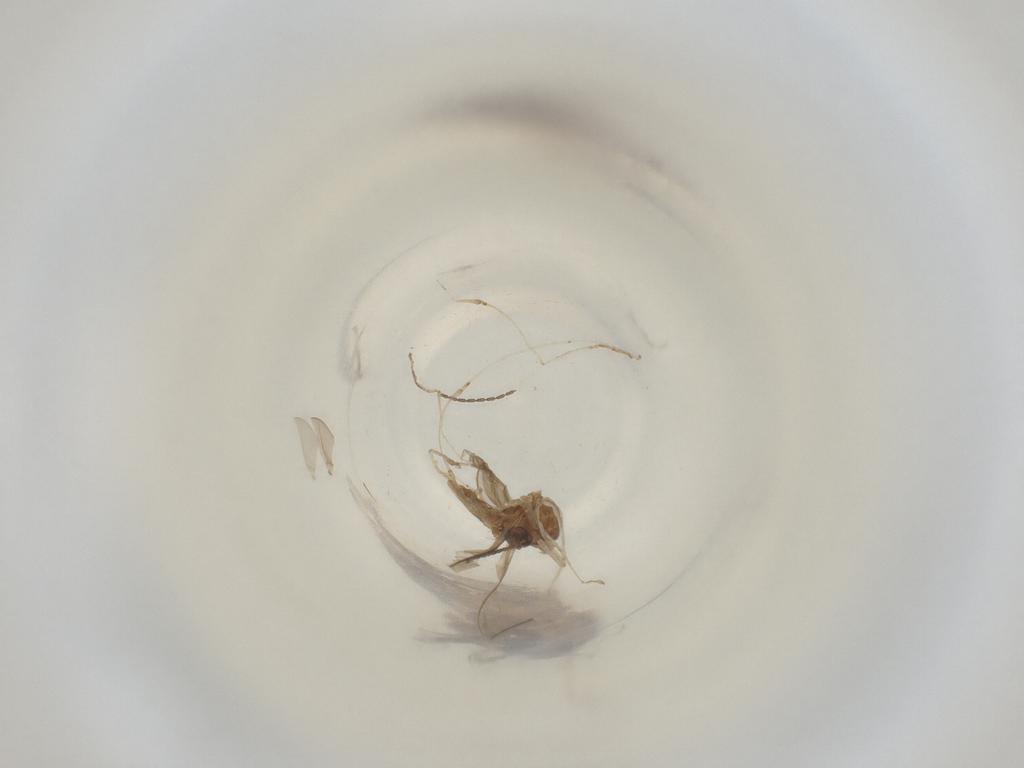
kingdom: Animalia
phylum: Arthropoda
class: Insecta
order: Diptera
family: Cecidomyiidae
